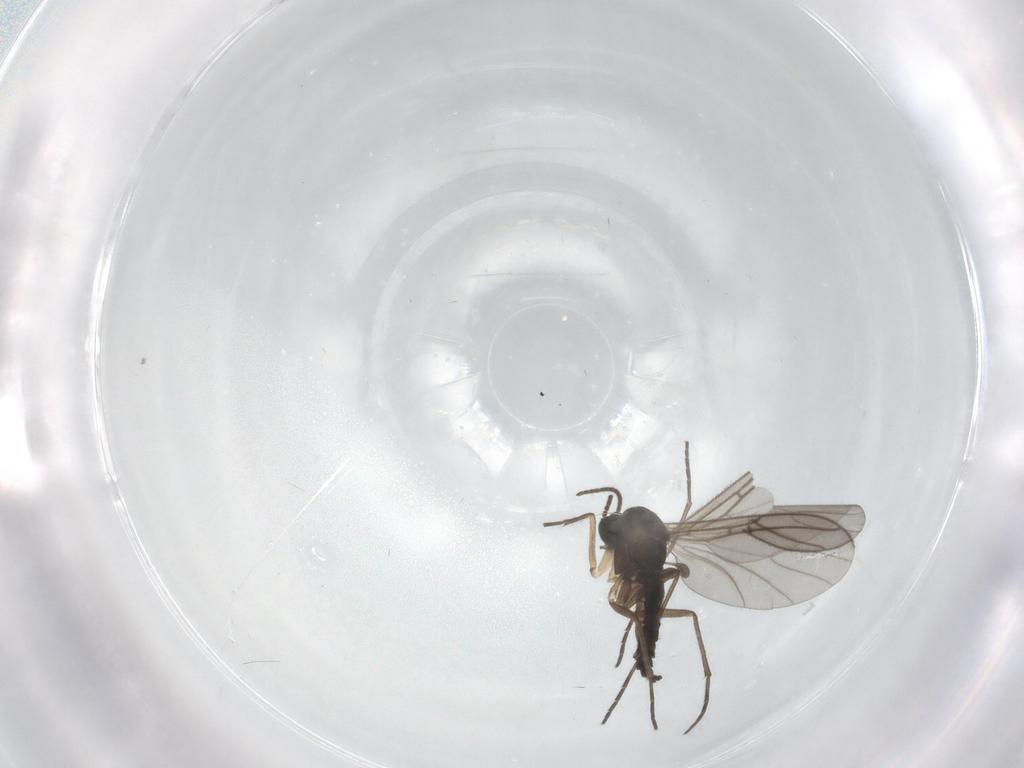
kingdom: Animalia
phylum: Arthropoda
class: Insecta
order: Diptera
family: Sciaridae
